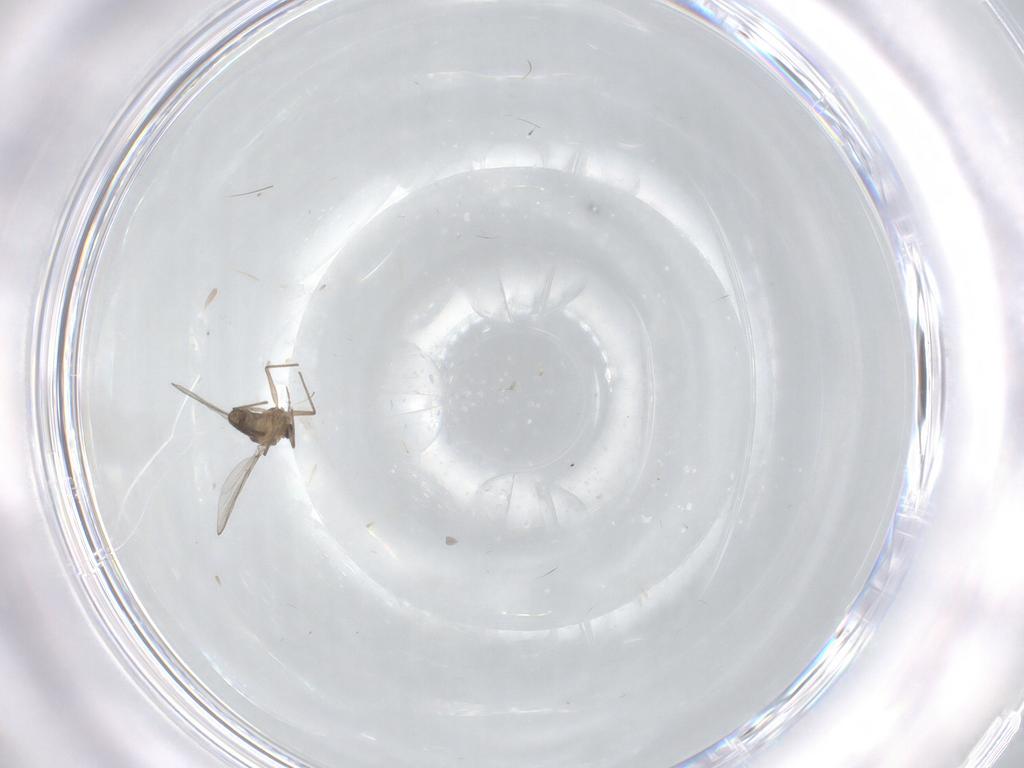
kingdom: Animalia
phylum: Arthropoda
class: Insecta
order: Diptera
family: Chironomidae
